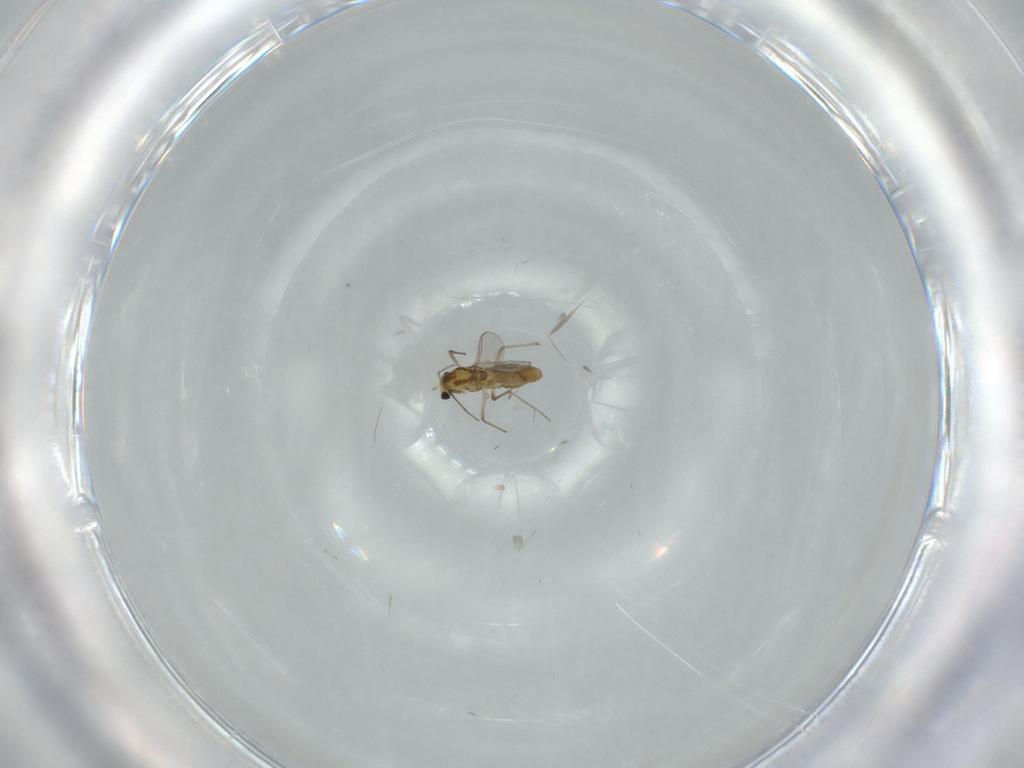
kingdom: Animalia
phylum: Arthropoda
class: Insecta
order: Diptera
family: Chironomidae
